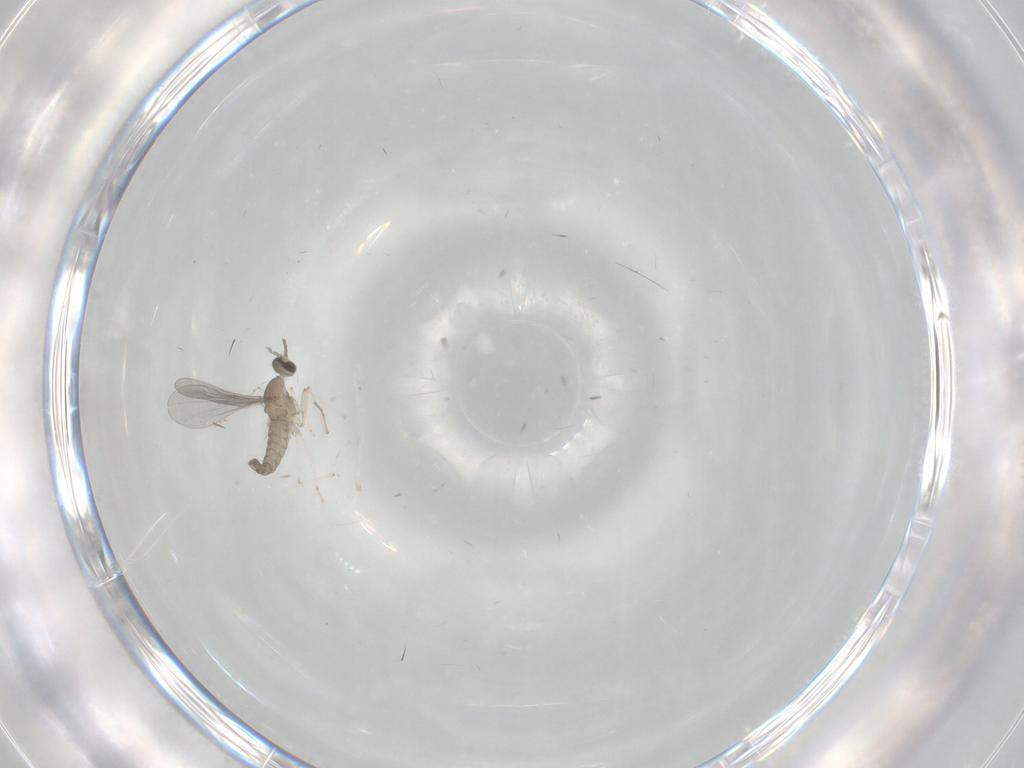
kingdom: Animalia
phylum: Arthropoda
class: Insecta
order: Diptera
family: Cecidomyiidae
